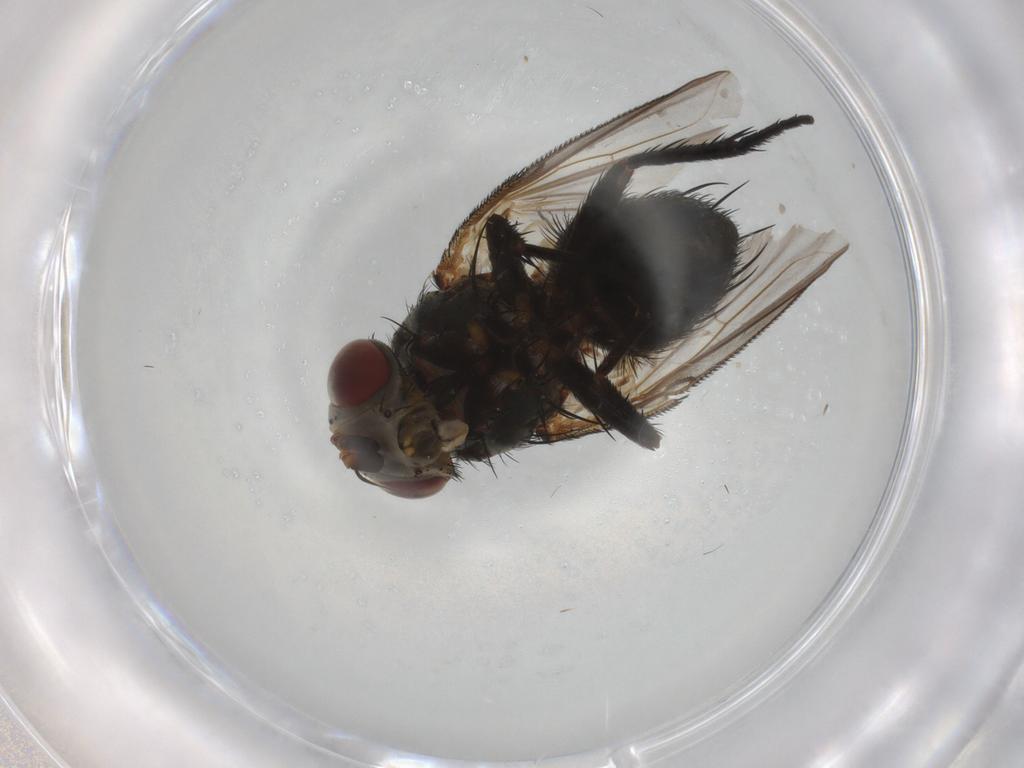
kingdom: Animalia
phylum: Arthropoda
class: Insecta
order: Diptera
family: Tachinidae
